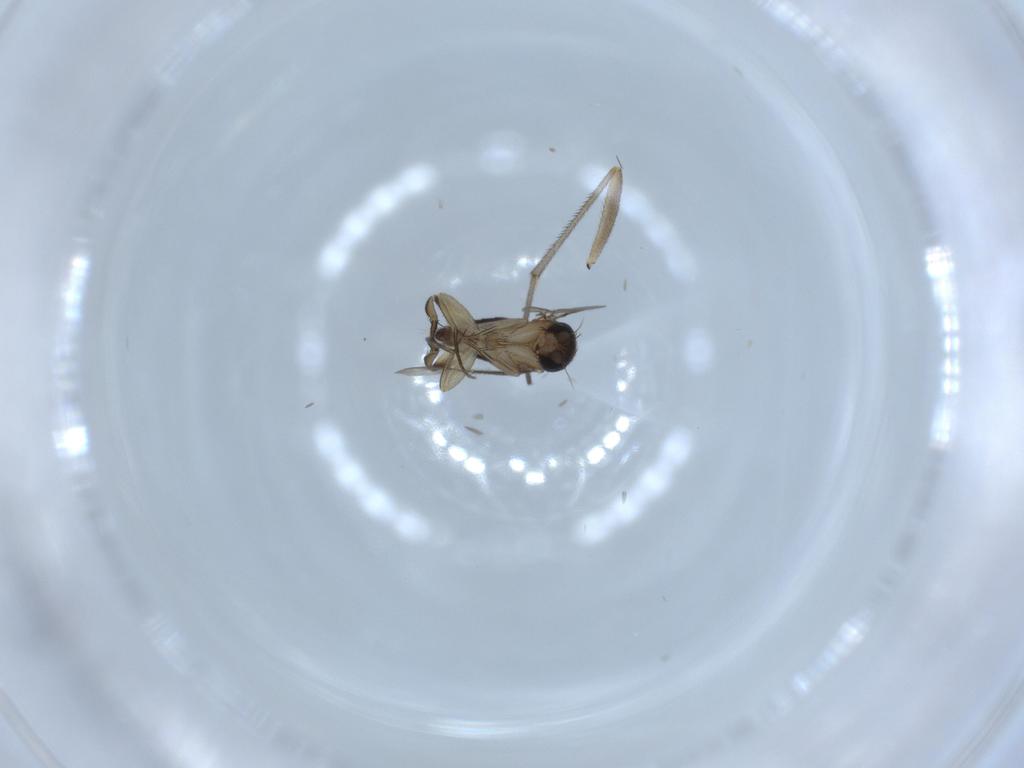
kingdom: Animalia
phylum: Arthropoda
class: Insecta
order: Diptera
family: Phoridae
